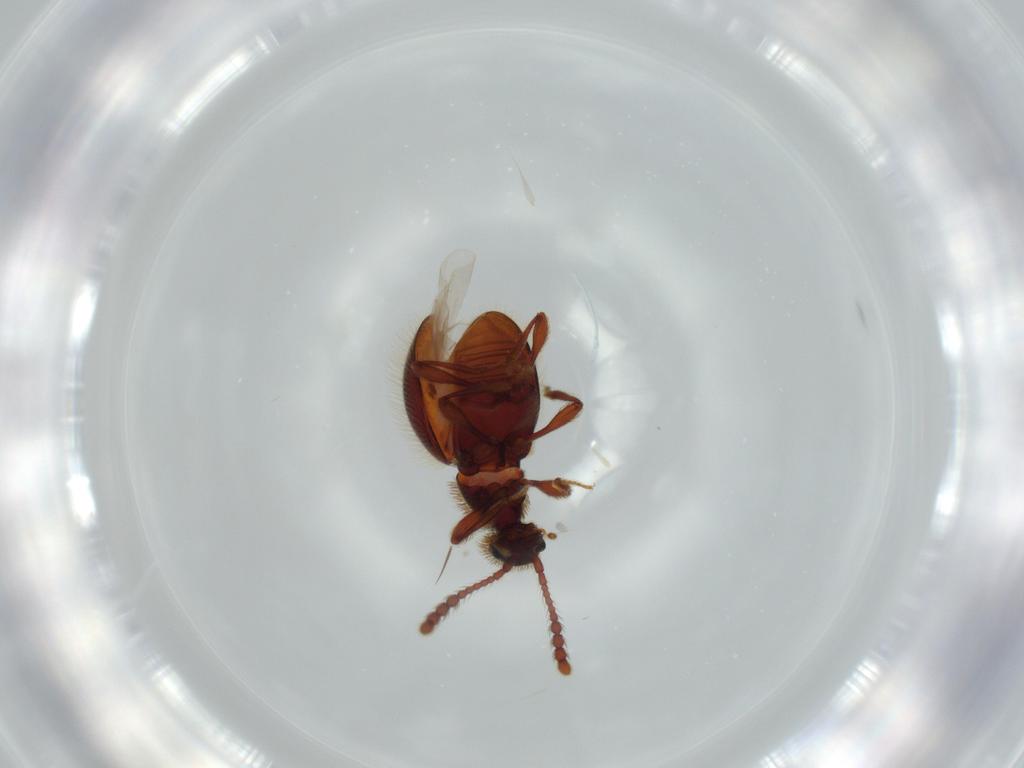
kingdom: Animalia
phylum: Arthropoda
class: Insecta
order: Coleoptera
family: Staphylinidae
